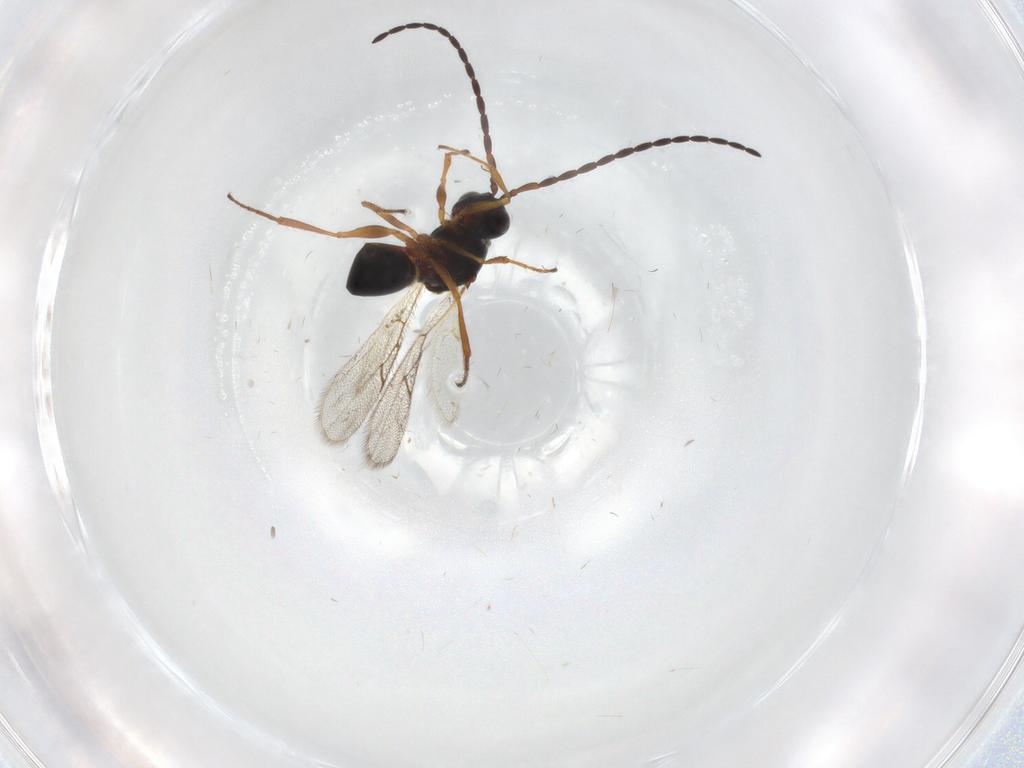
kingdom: Animalia
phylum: Arthropoda
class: Insecta
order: Hymenoptera
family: Figitidae
